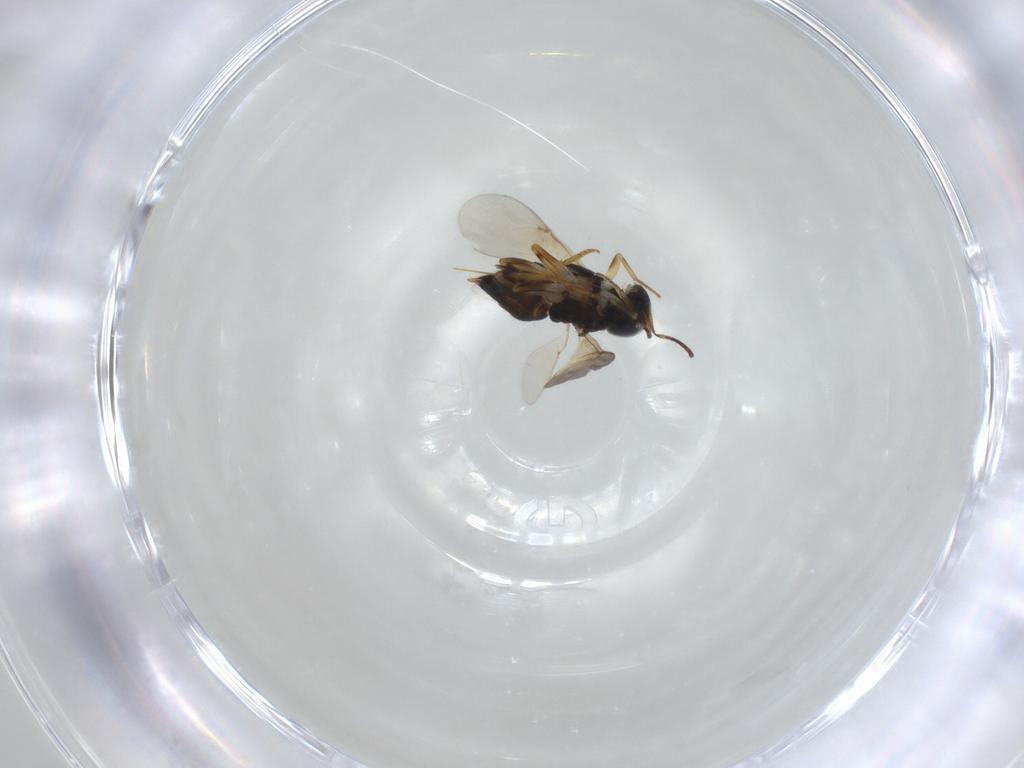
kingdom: Animalia
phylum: Arthropoda
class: Insecta
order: Hymenoptera
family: Encyrtidae
